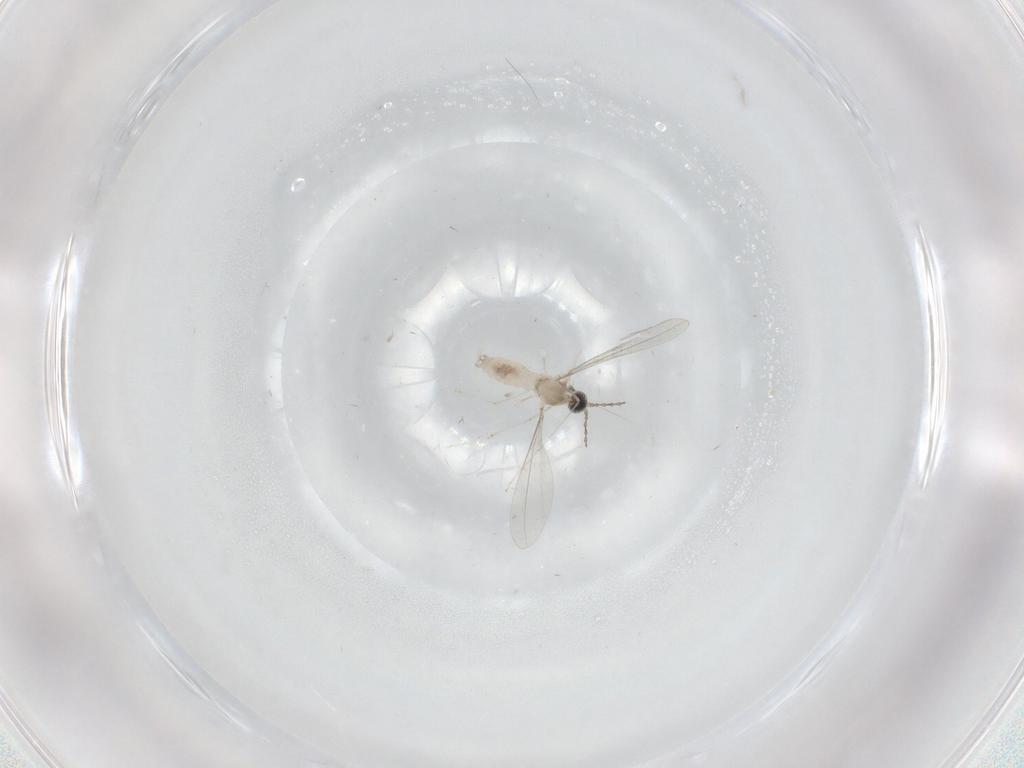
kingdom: Animalia
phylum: Arthropoda
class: Insecta
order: Diptera
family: Cecidomyiidae
